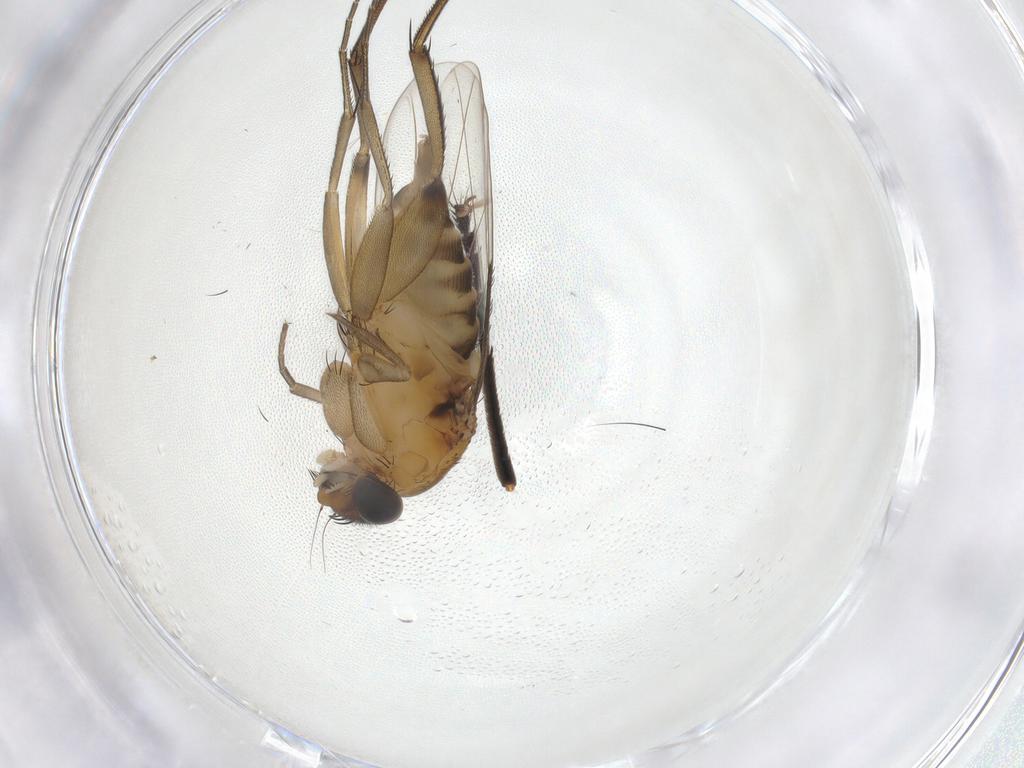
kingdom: Animalia
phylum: Arthropoda
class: Insecta
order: Diptera
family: Phoridae
